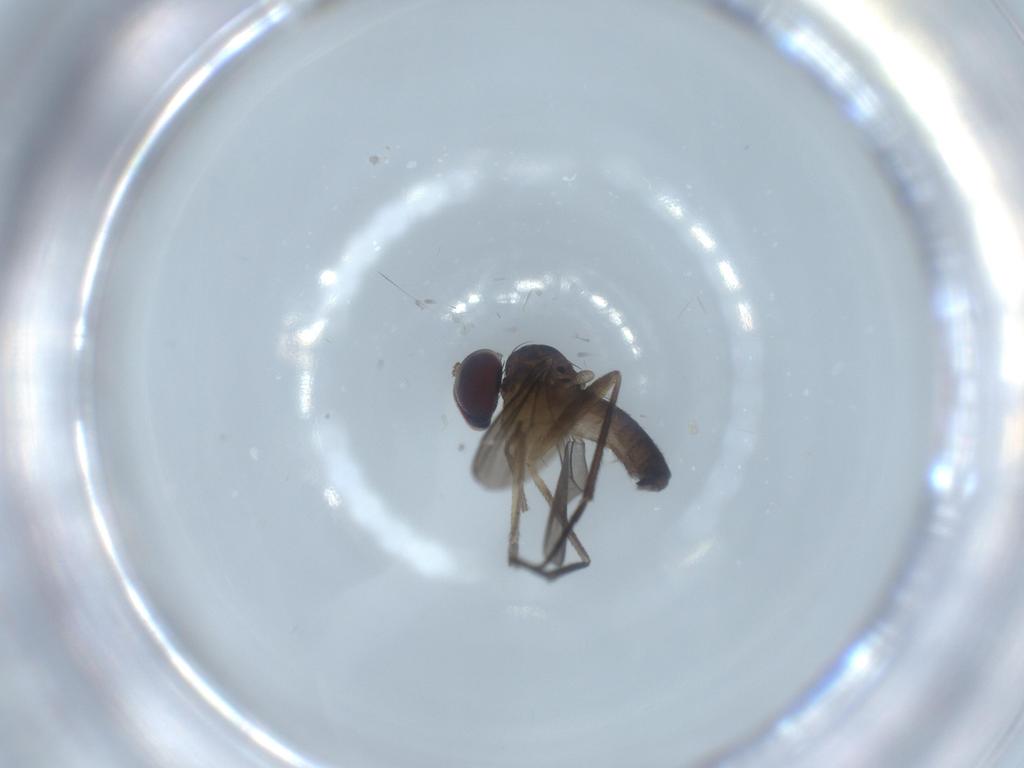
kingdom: Animalia
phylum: Arthropoda
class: Insecta
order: Diptera
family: Dolichopodidae
